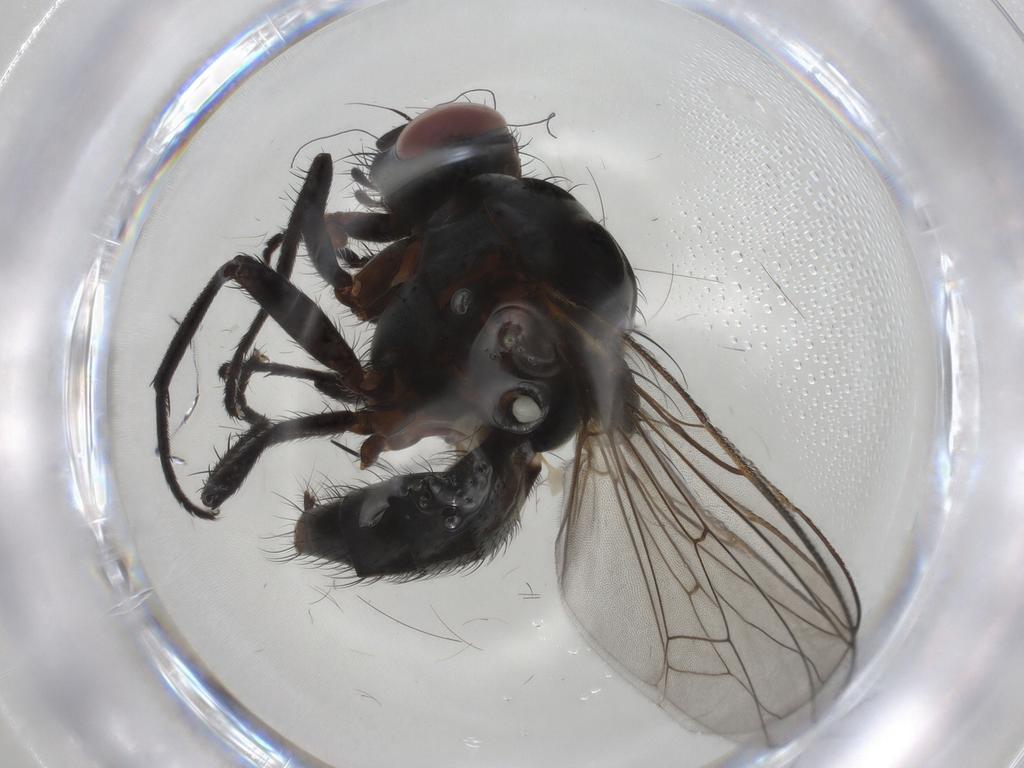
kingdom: Animalia
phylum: Arthropoda
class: Insecta
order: Diptera
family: Anthomyiidae
